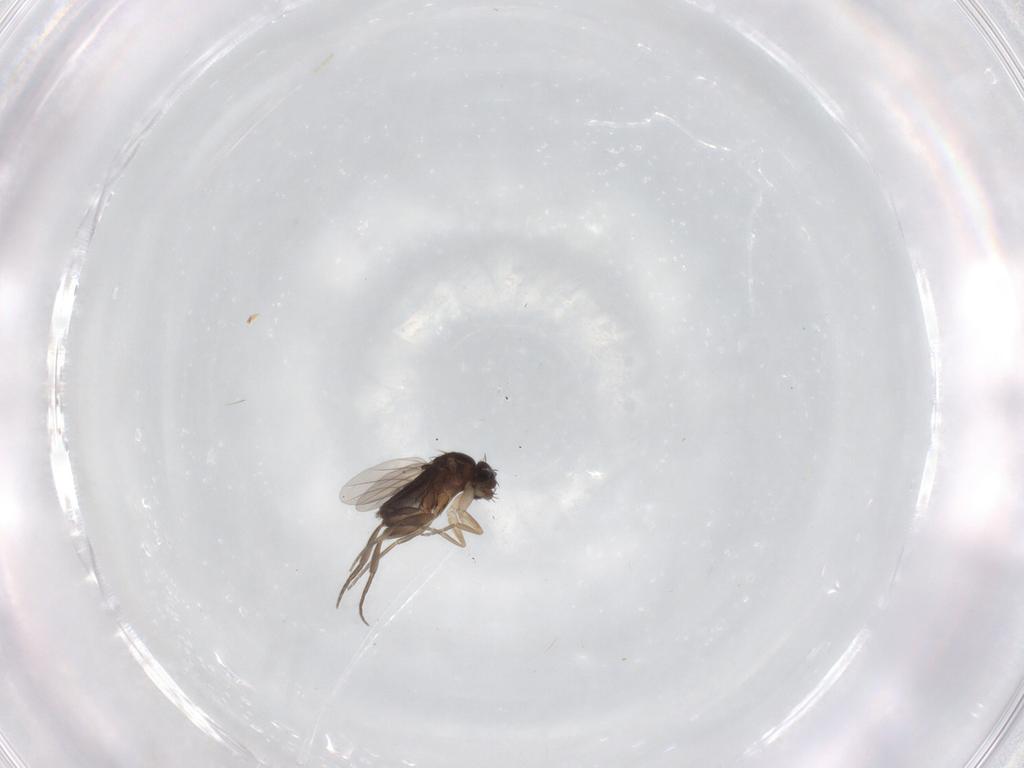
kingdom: Animalia
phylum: Arthropoda
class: Insecta
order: Diptera
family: Phoridae
